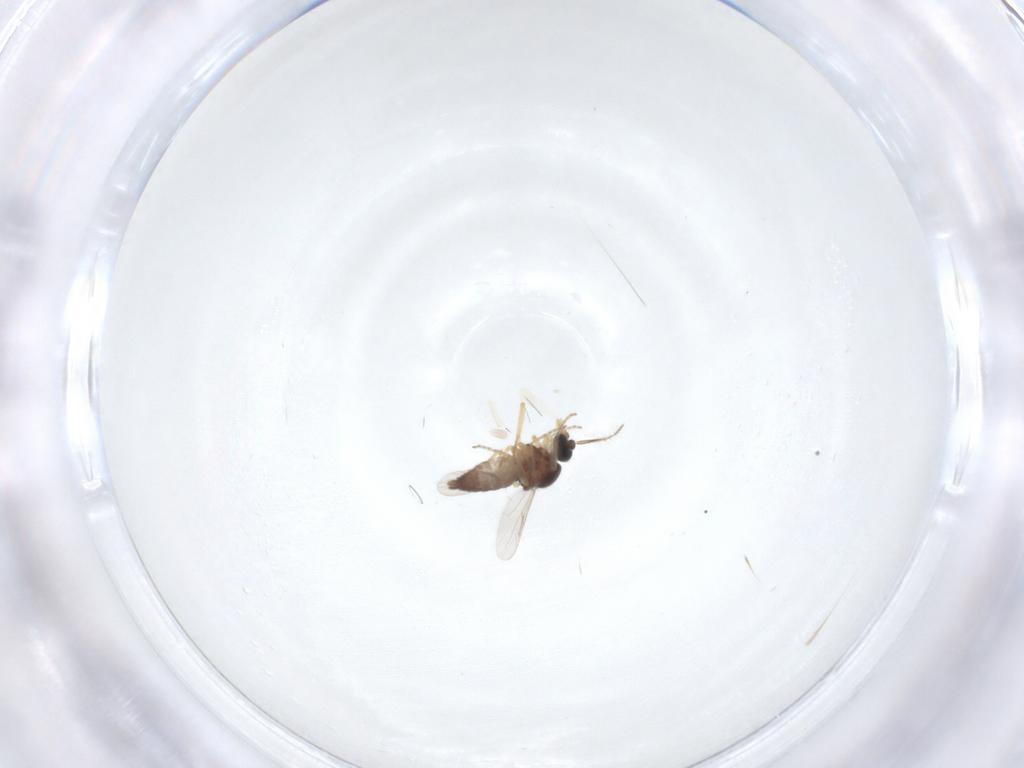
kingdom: Animalia
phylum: Arthropoda
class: Insecta
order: Diptera
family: Ceratopogonidae
